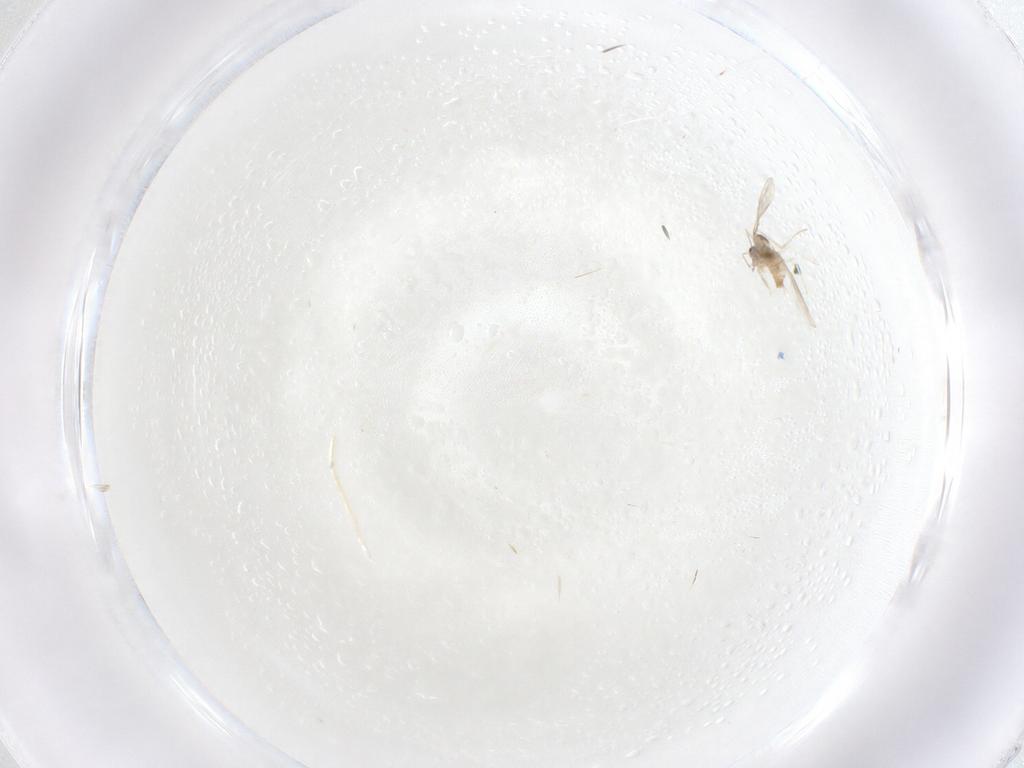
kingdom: Animalia
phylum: Arthropoda
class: Insecta
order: Diptera
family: Cecidomyiidae
